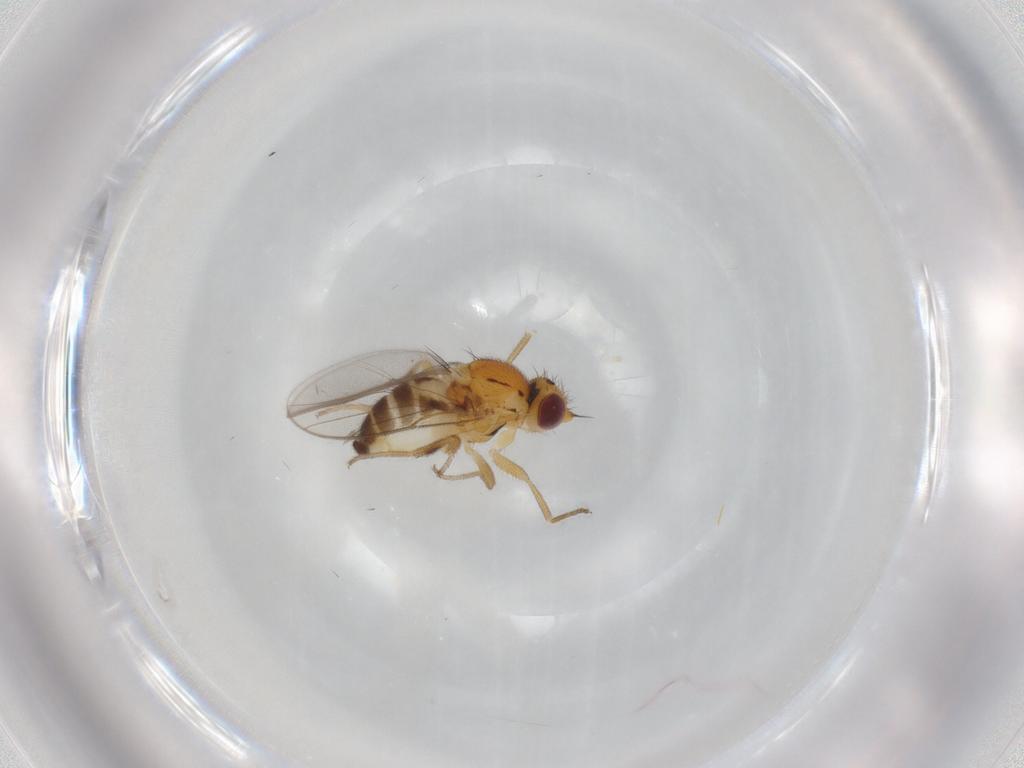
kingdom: Animalia
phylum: Arthropoda
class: Insecta
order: Diptera
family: Chloropidae
